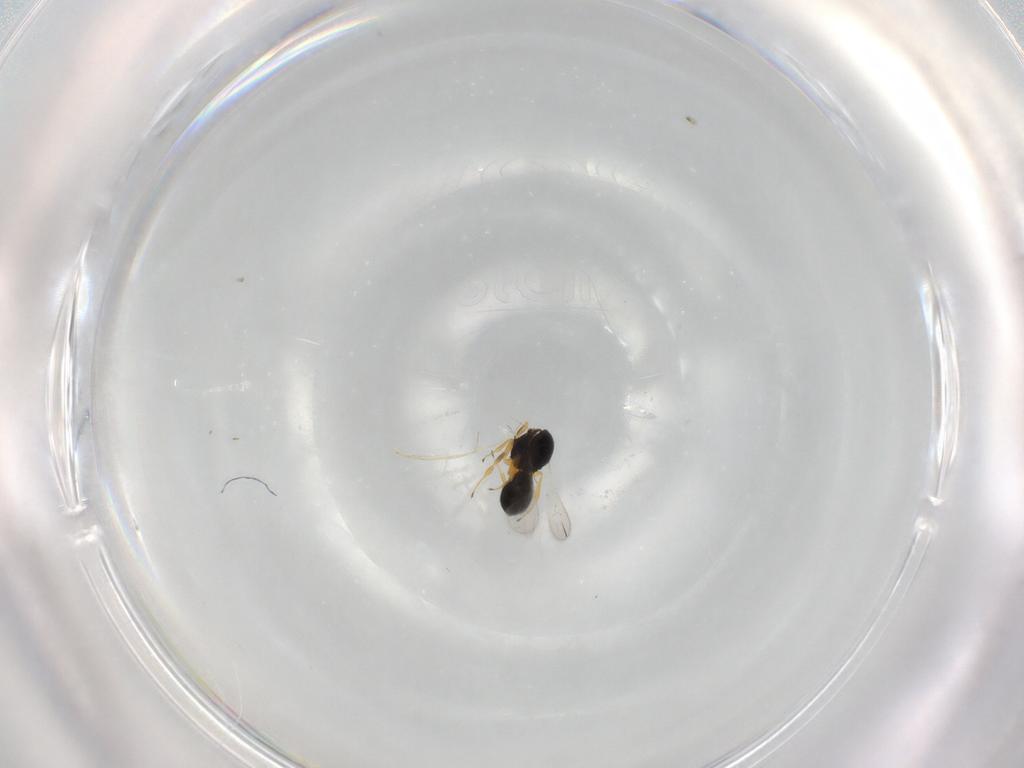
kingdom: Animalia
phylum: Arthropoda
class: Insecta
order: Hymenoptera
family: Scelionidae
